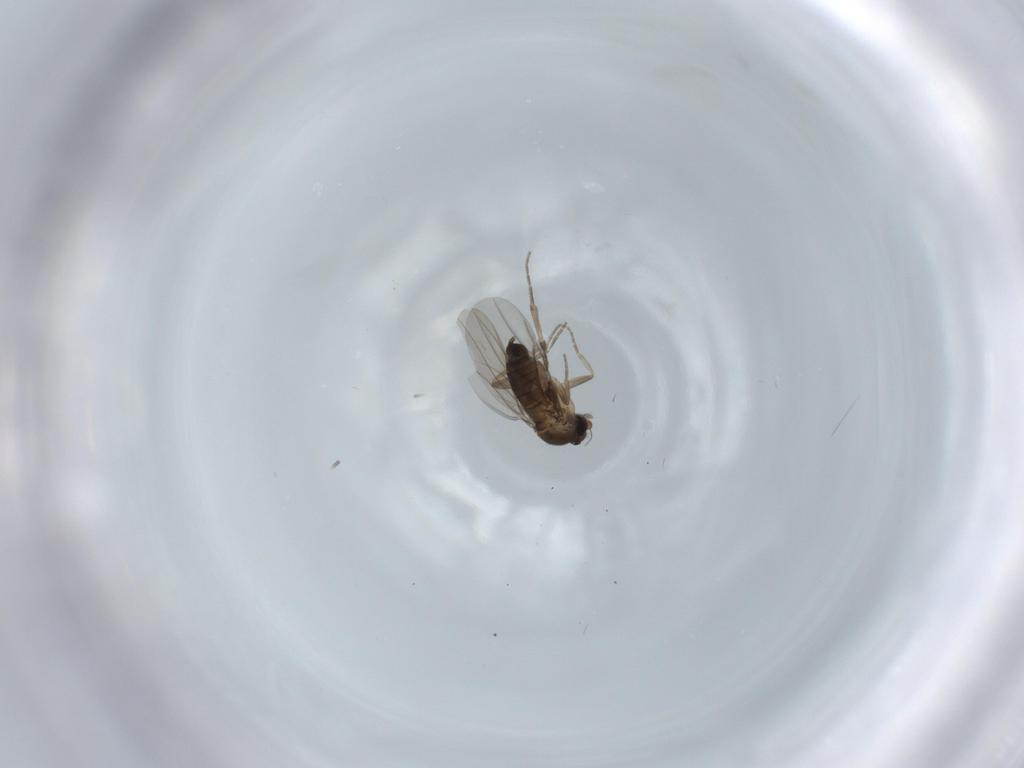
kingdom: Animalia
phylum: Arthropoda
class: Insecta
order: Diptera
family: Phoridae
